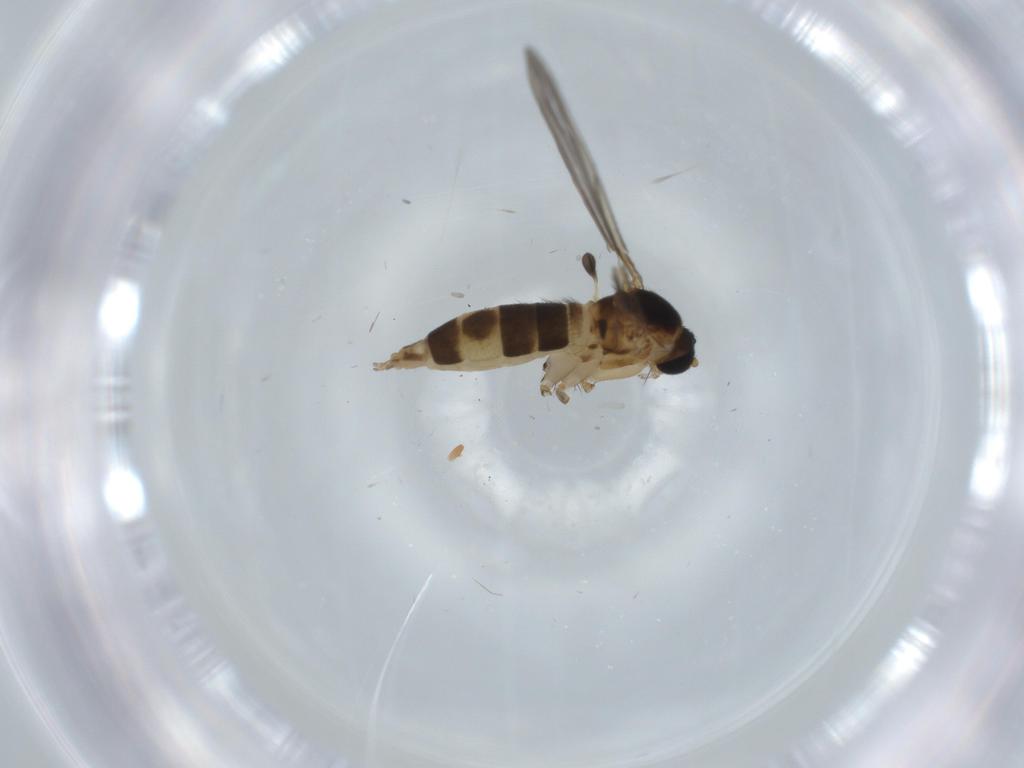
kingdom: Animalia
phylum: Arthropoda
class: Insecta
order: Diptera
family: Sciaridae
